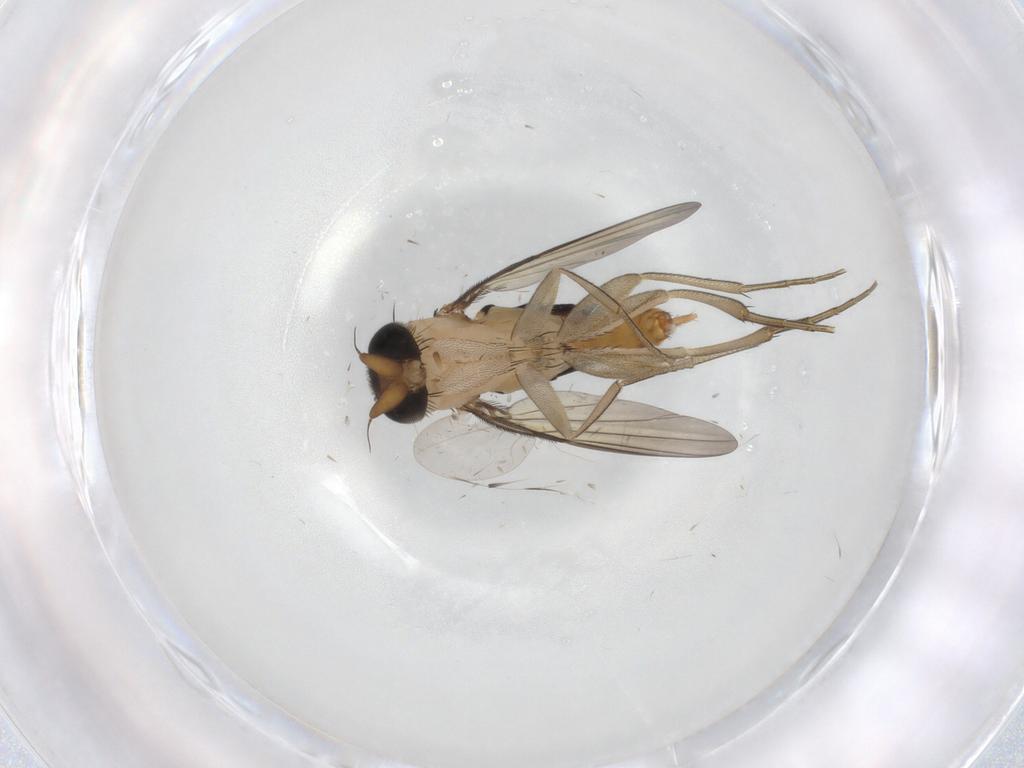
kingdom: Animalia
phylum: Arthropoda
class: Insecta
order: Diptera
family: Phoridae
